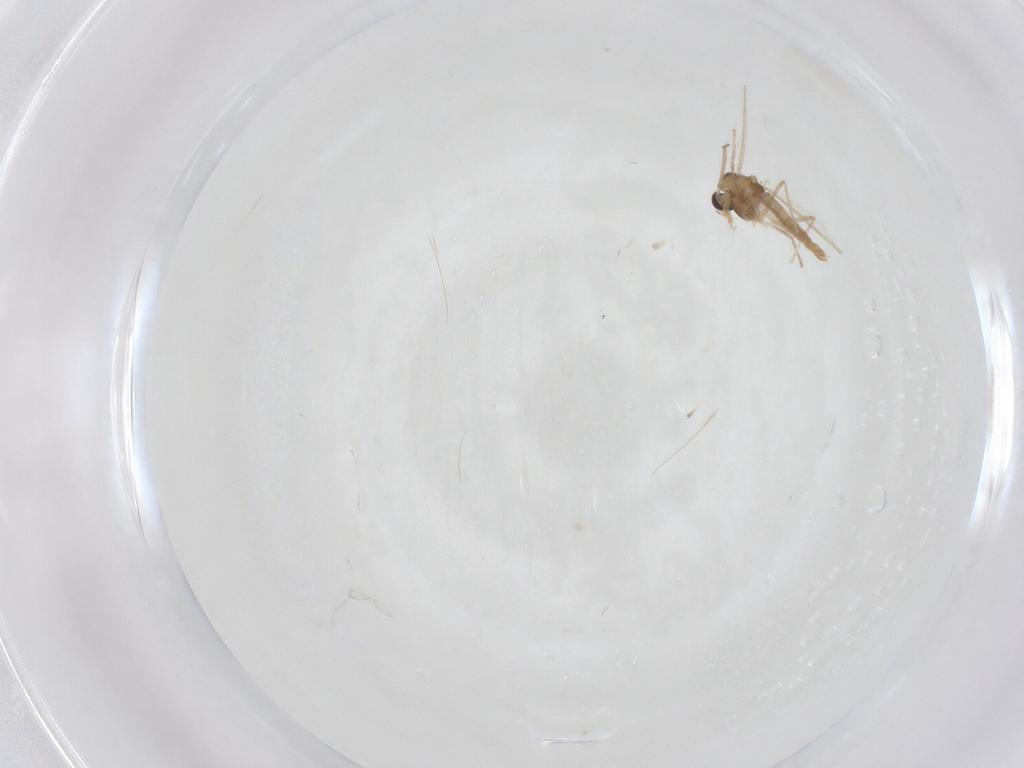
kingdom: Animalia
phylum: Arthropoda
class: Insecta
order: Diptera
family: Chironomidae
